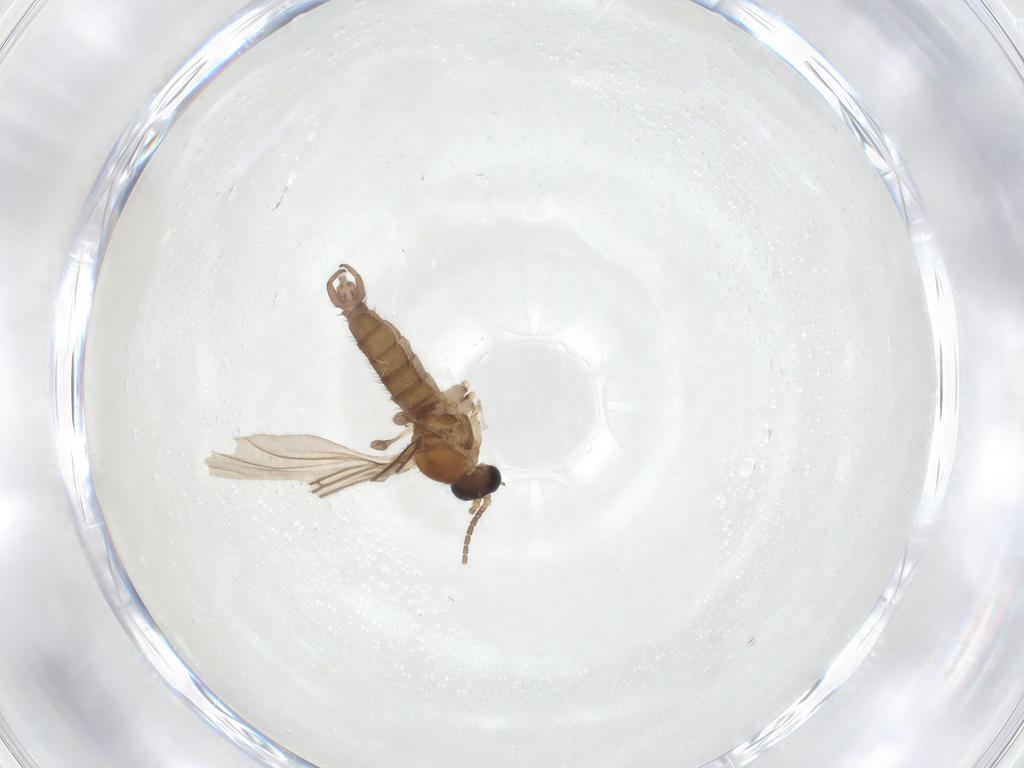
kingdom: Animalia
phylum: Arthropoda
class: Insecta
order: Diptera
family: Sciaridae
